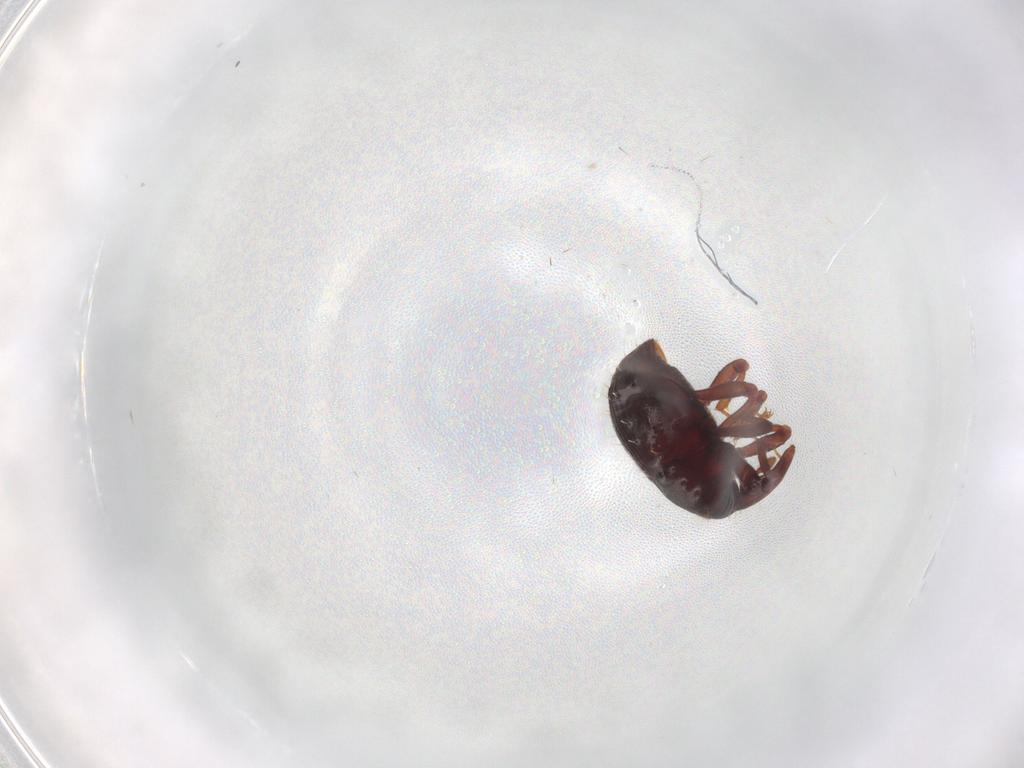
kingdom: Animalia
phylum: Arthropoda
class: Insecta
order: Coleoptera
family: Curculionidae
